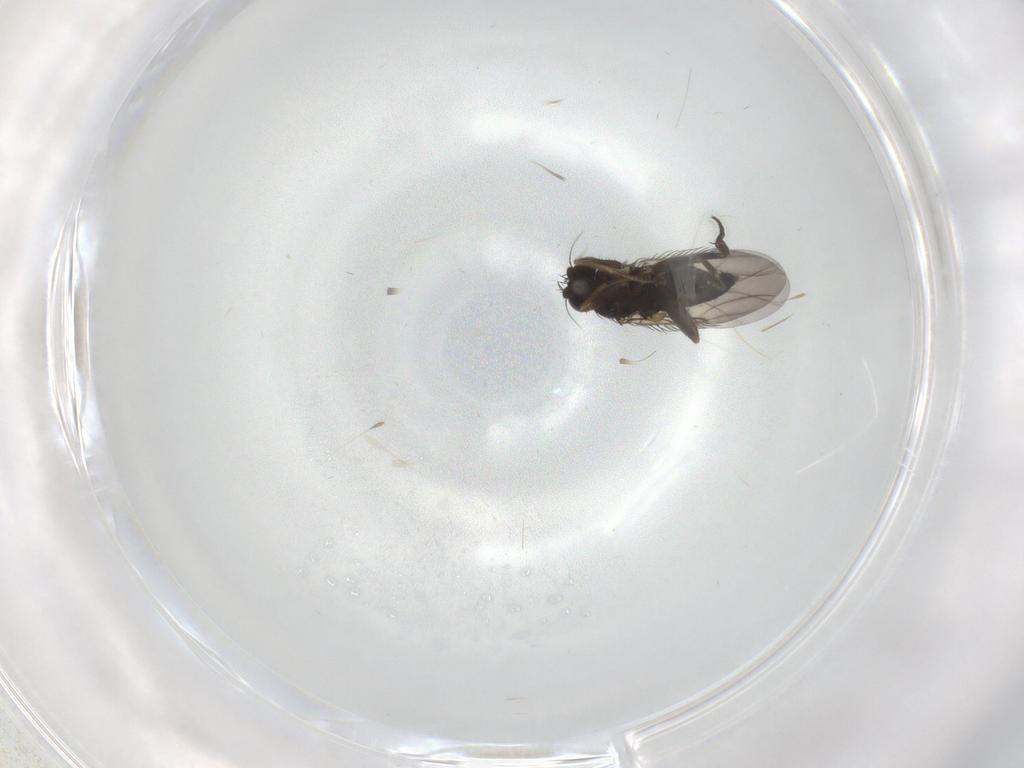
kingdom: Animalia
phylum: Arthropoda
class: Insecta
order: Diptera
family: Phoridae
